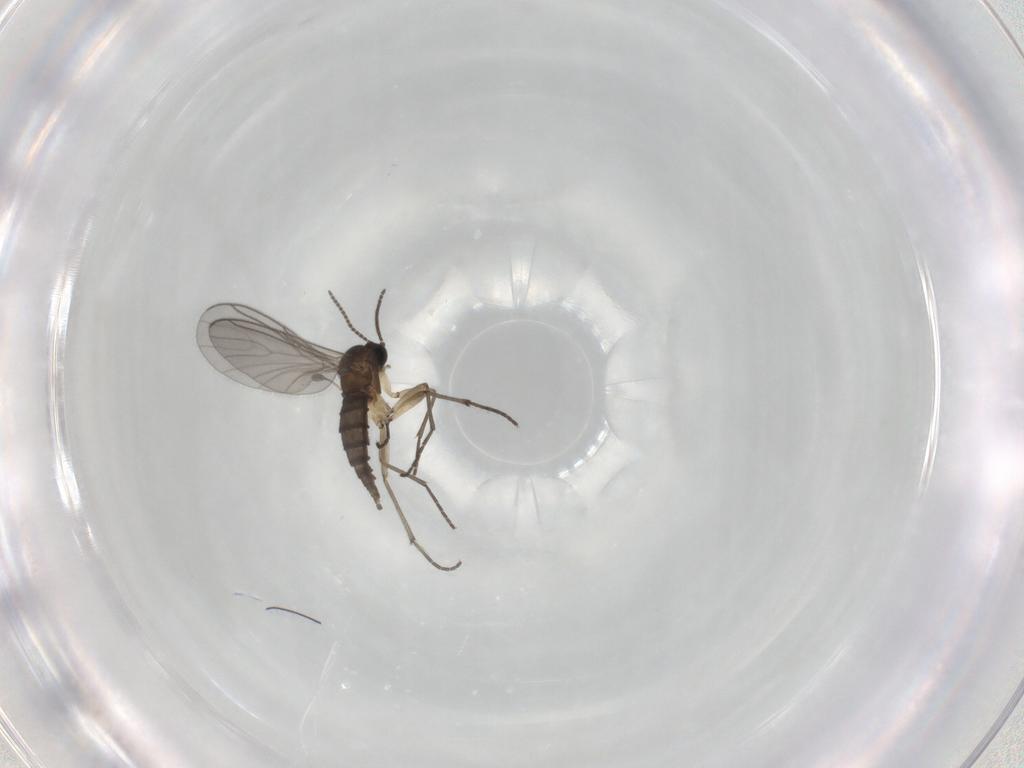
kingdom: Animalia
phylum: Arthropoda
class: Insecta
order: Diptera
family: Sciaridae
